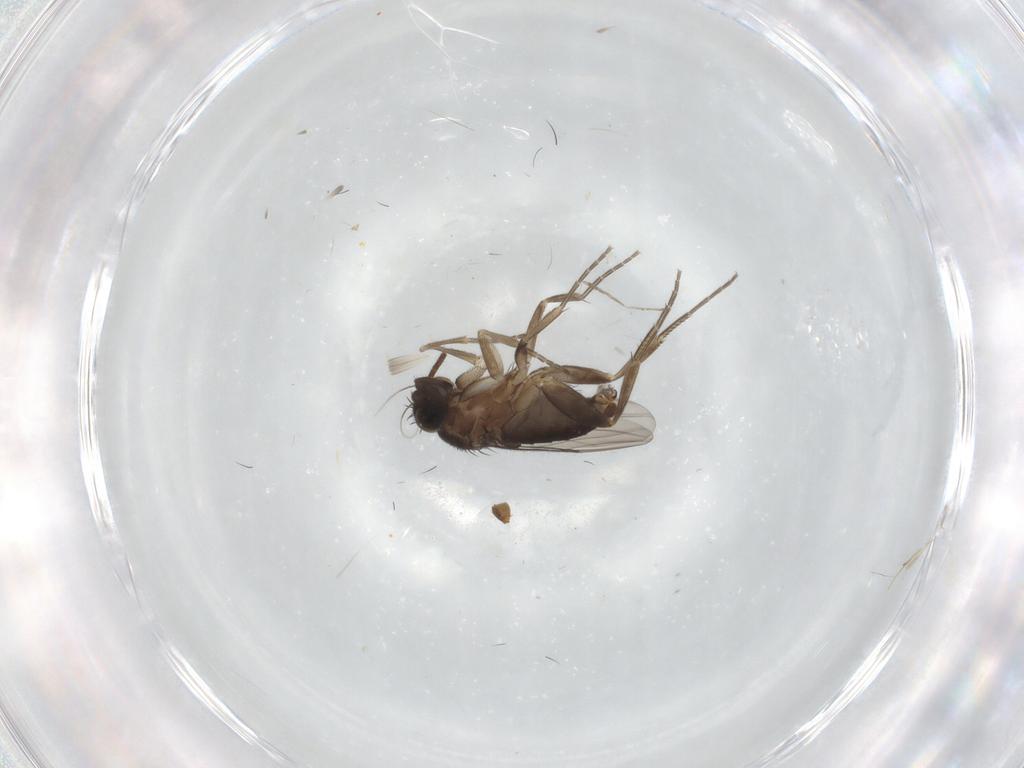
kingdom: Animalia
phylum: Arthropoda
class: Insecta
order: Diptera
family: Phoridae
